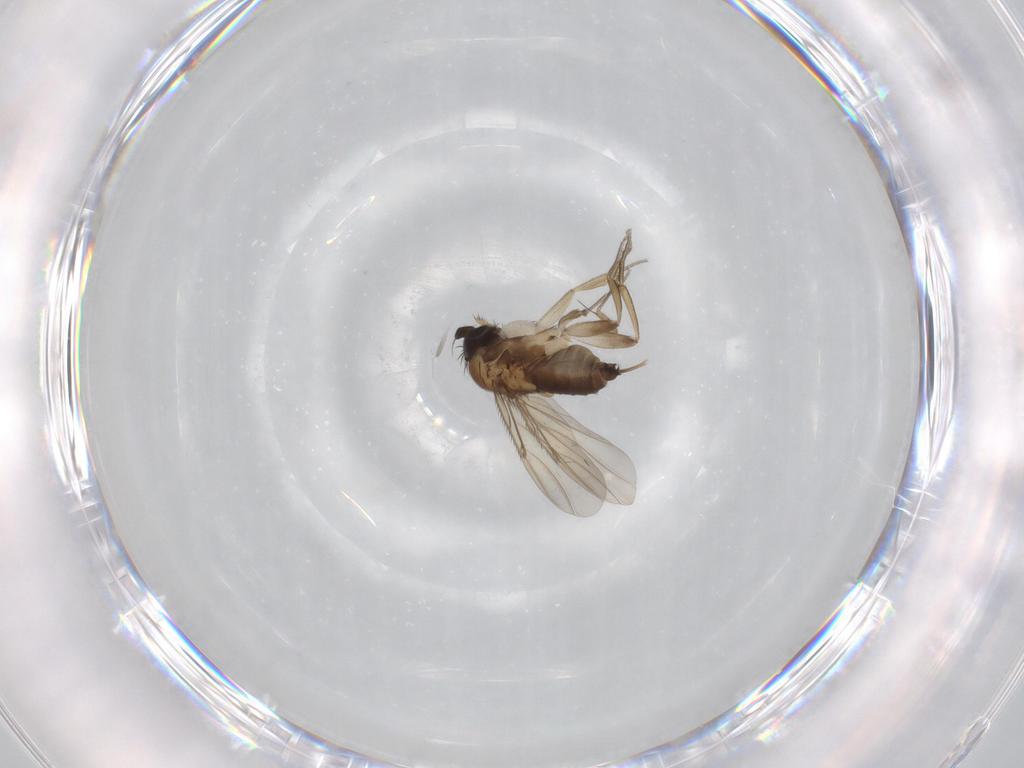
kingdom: Animalia
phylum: Arthropoda
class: Insecta
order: Diptera
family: Phoridae
